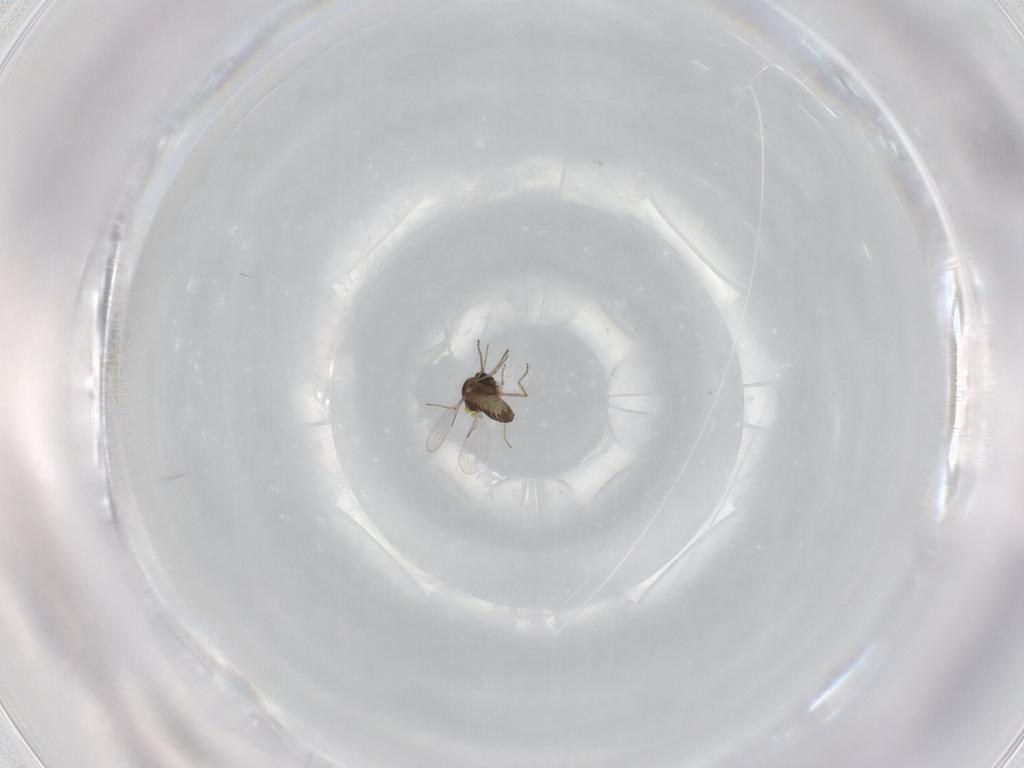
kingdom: Animalia
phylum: Arthropoda
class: Insecta
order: Diptera
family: Ceratopogonidae
